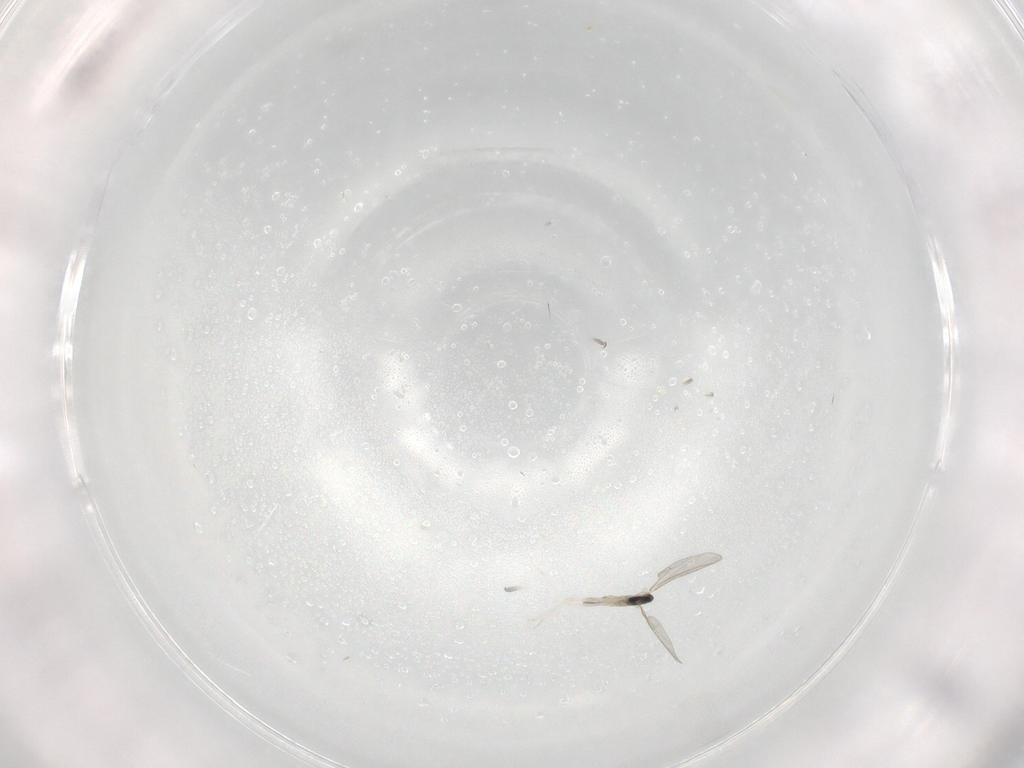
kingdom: Animalia
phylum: Arthropoda
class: Insecta
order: Diptera
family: Cecidomyiidae
